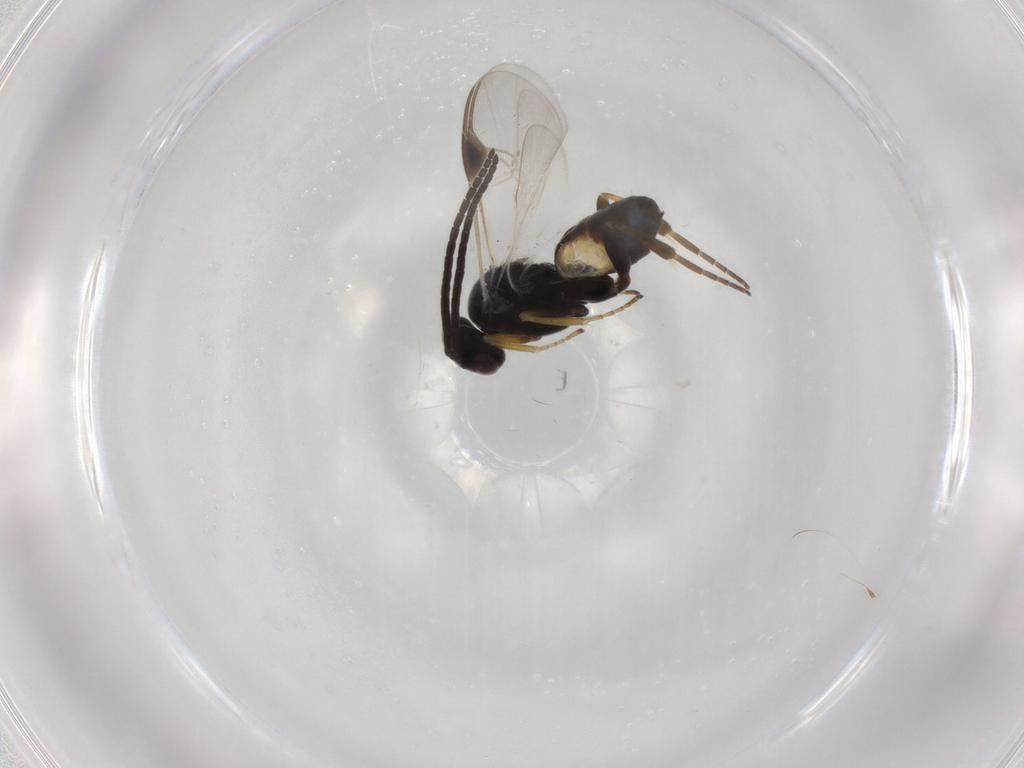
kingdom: Animalia
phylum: Arthropoda
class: Insecta
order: Hymenoptera
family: Braconidae
